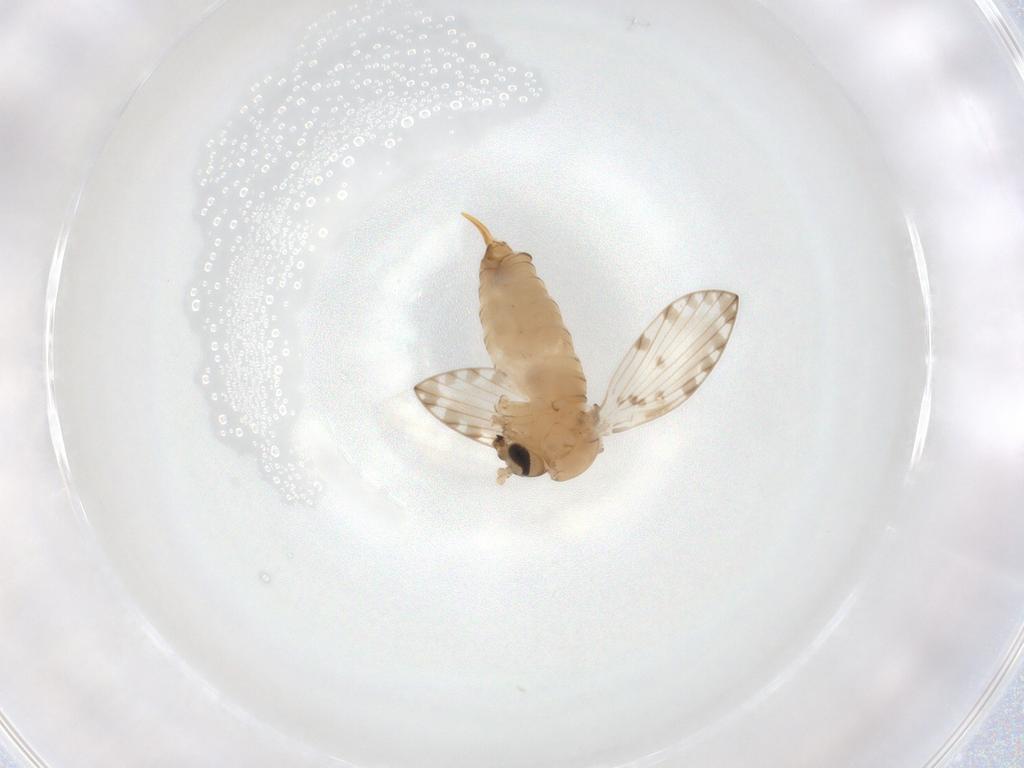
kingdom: Animalia
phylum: Arthropoda
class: Insecta
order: Diptera
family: Psychodidae
